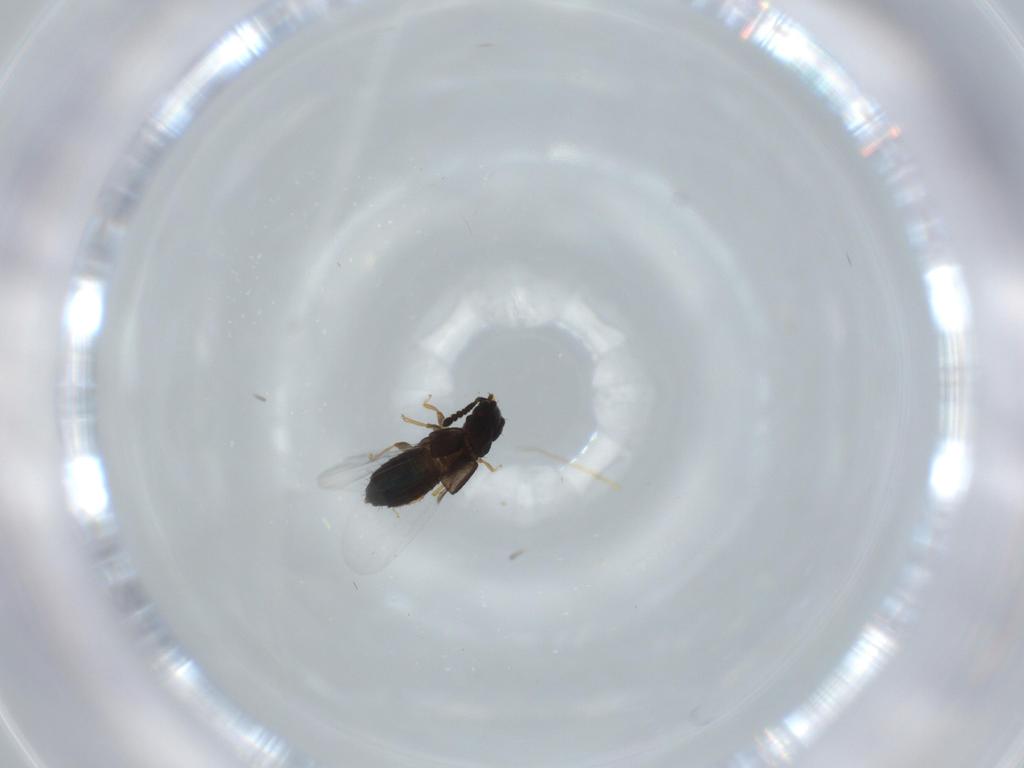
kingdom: Animalia
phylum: Arthropoda
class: Insecta
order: Coleoptera
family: Staphylinidae
